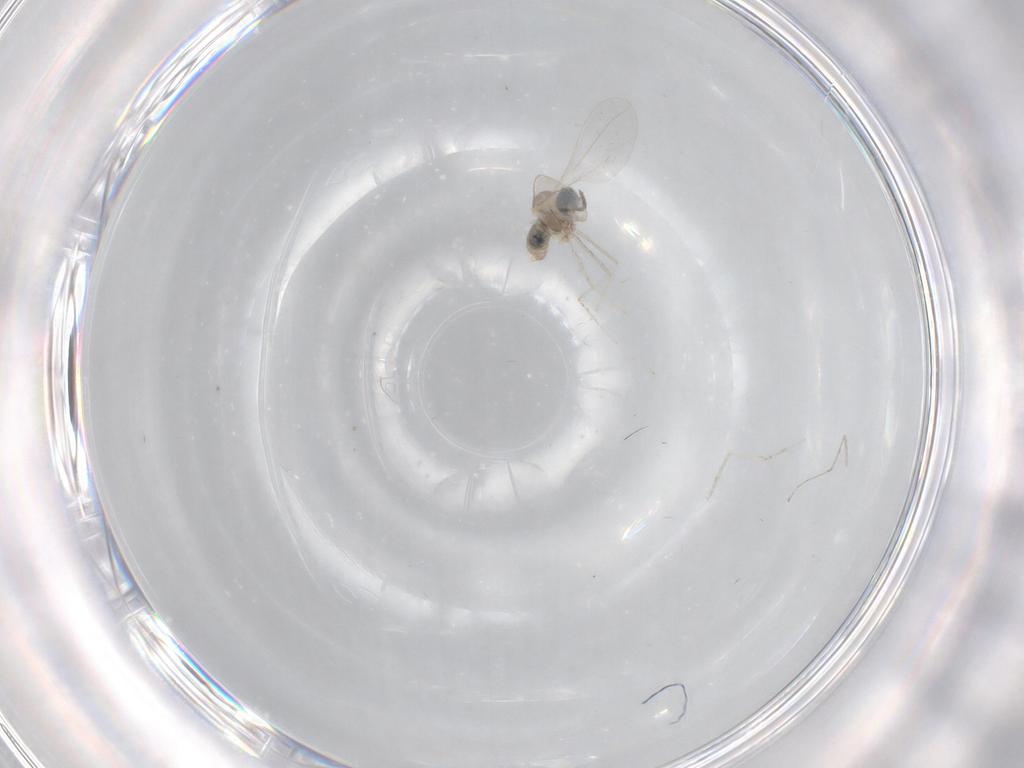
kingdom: Animalia
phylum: Arthropoda
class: Insecta
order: Diptera
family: Cecidomyiidae
